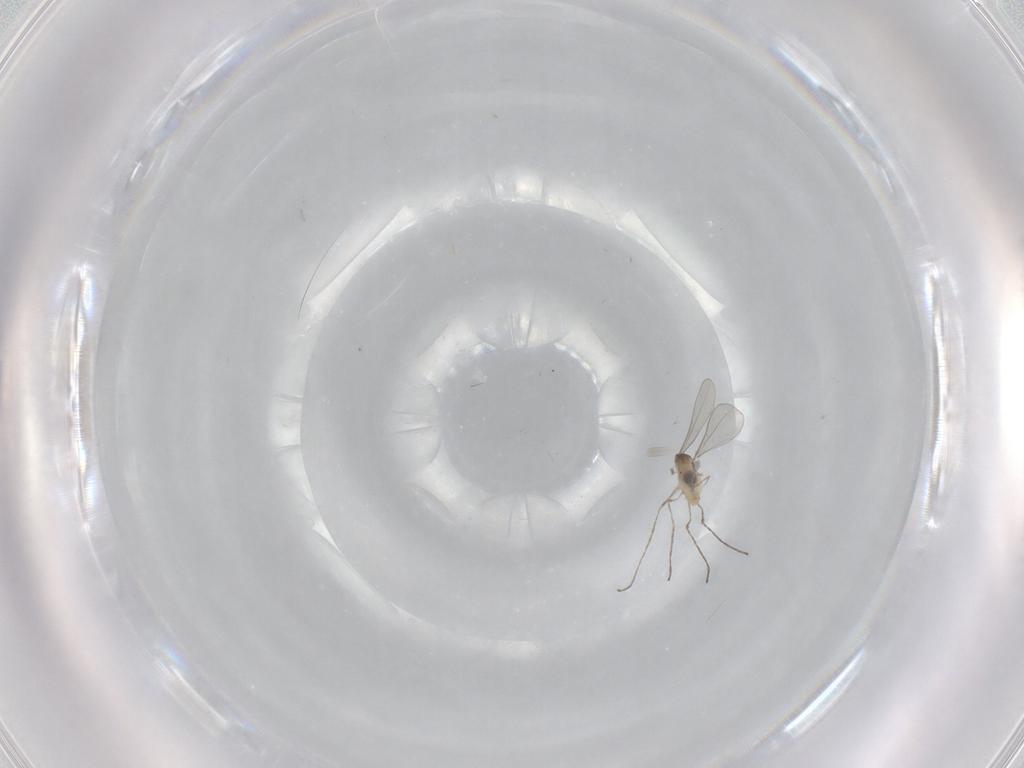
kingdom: Animalia
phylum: Arthropoda
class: Insecta
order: Diptera
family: Cecidomyiidae
